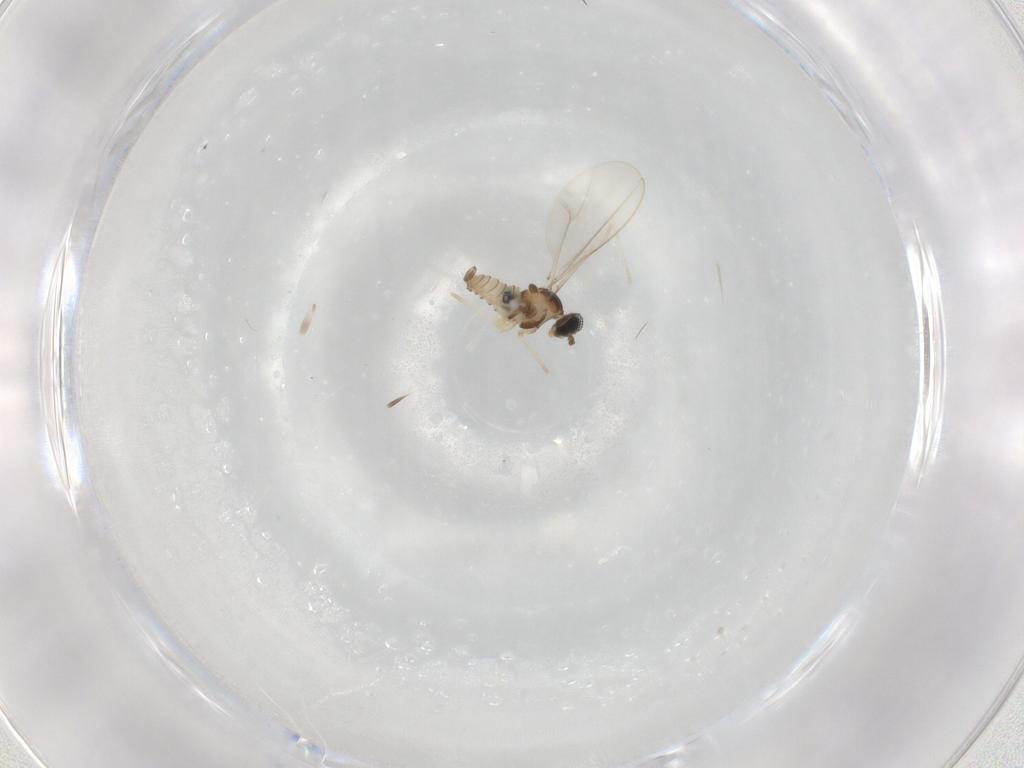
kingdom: Animalia
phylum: Arthropoda
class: Insecta
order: Diptera
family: Cecidomyiidae
